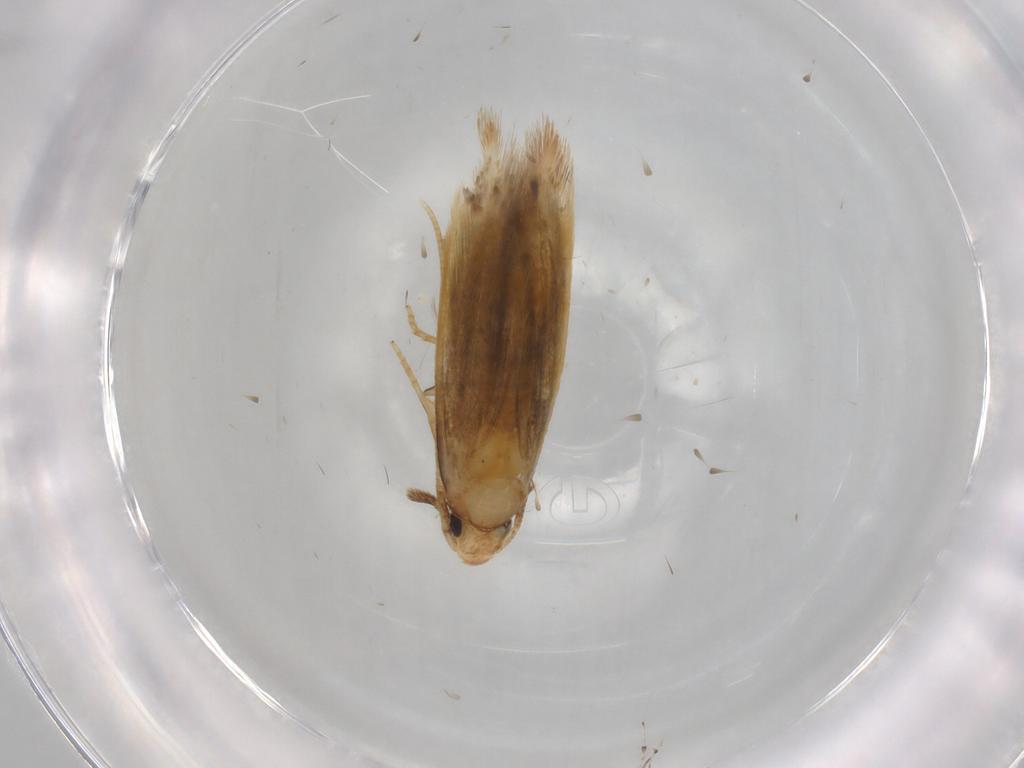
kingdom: Animalia
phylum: Arthropoda
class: Insecta
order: Lepidoptera
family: Tineidae
